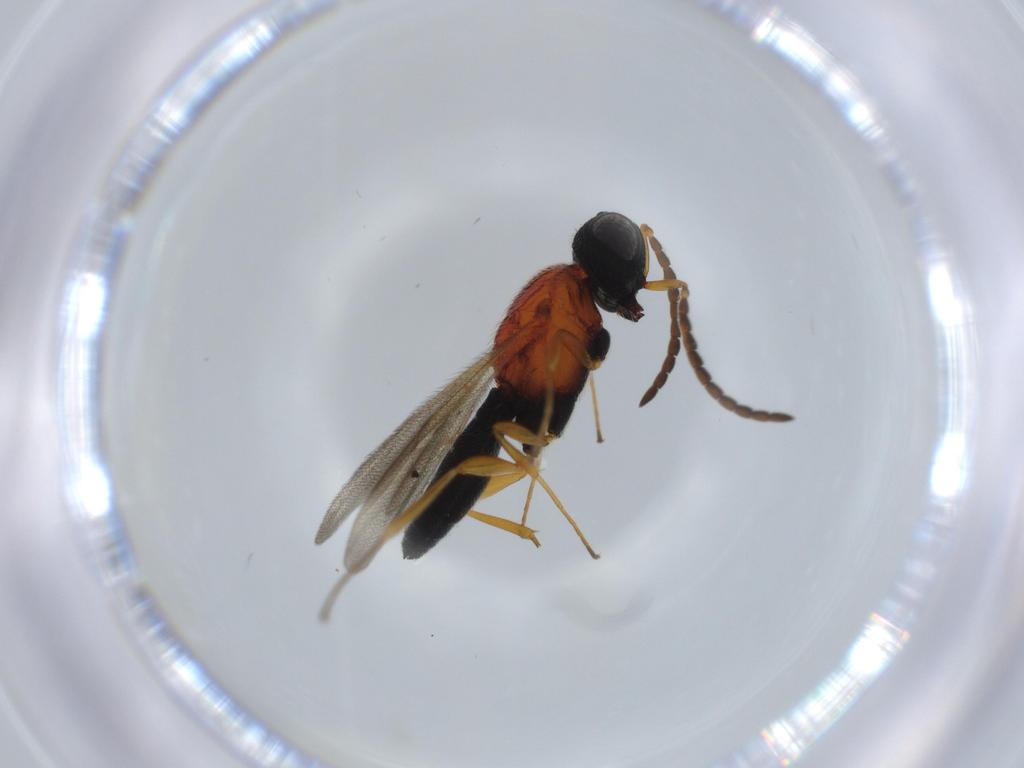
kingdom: Animalia
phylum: Arthropoda
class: Insecta
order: Hymenoptera
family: Scelionidae
